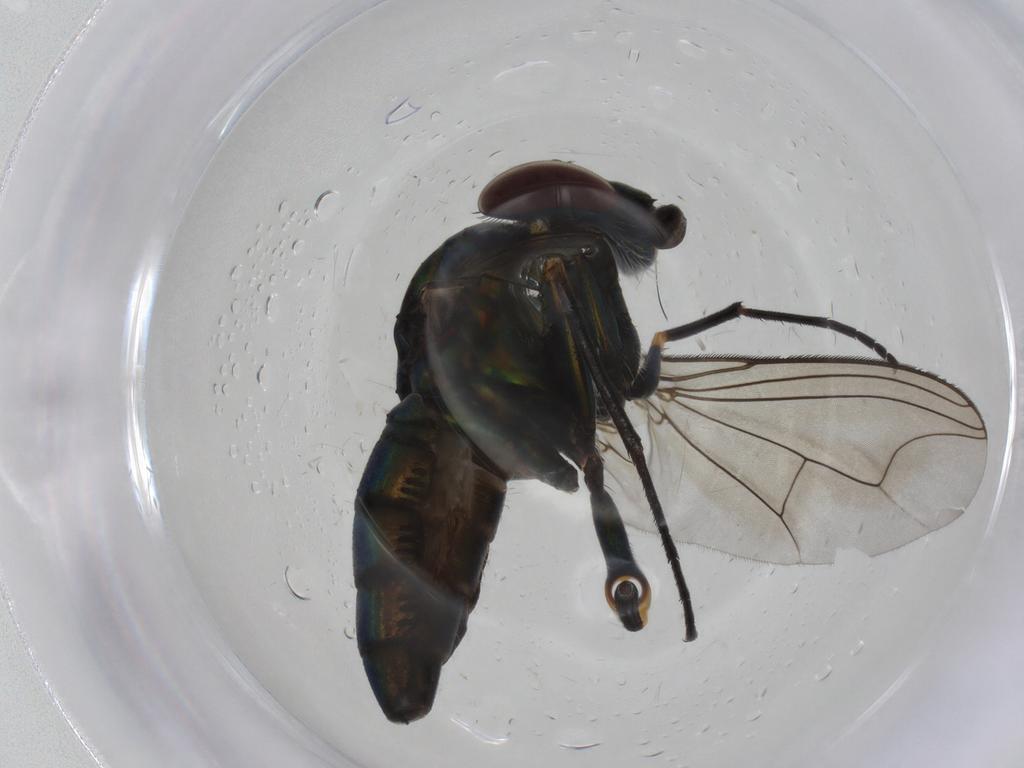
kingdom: Animalia
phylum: Arthropoda
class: Insecta
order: Diptera
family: Dolichopodidae
